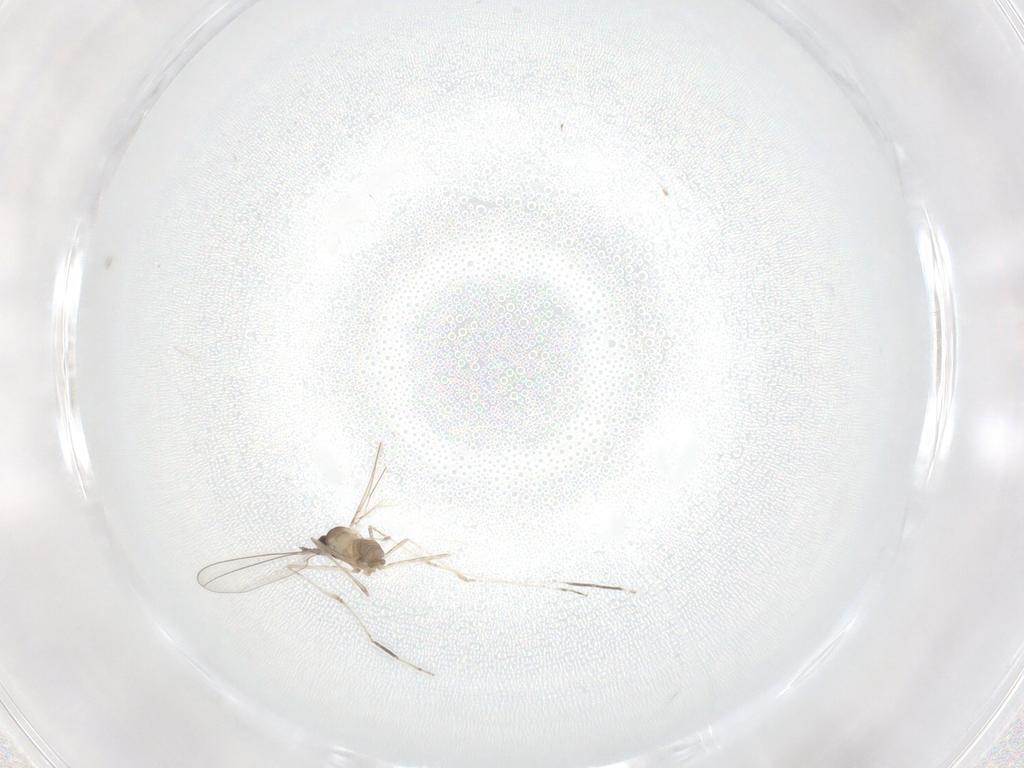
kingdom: Animalia
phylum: Arthropoda
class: Insecta
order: Diptera
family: Cecidomyiidae
